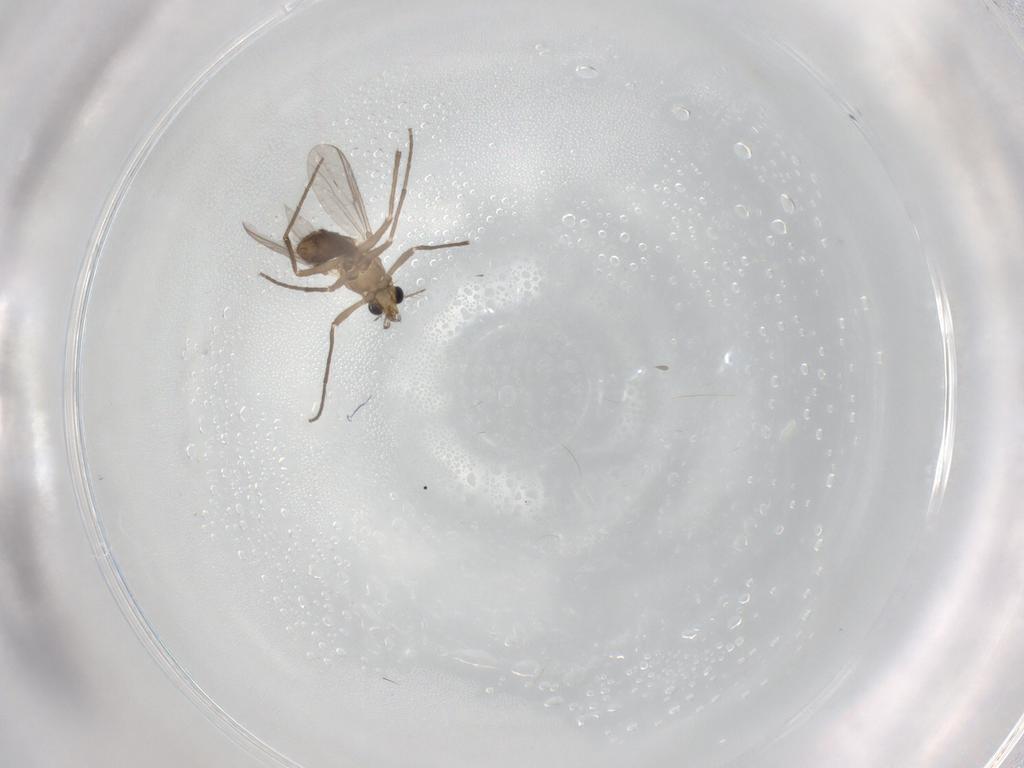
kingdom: Animalia
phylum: Arthropoda
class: Insecta
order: Diptera
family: Chironomidae
